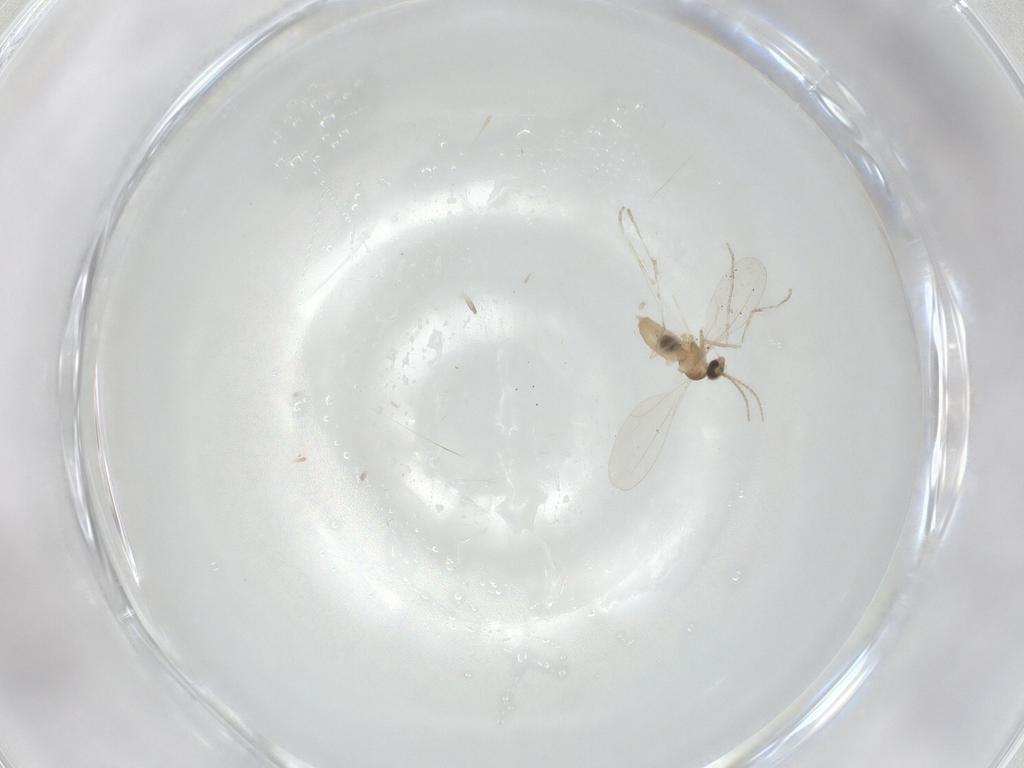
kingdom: Animalia
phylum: Arthropoda
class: Insecta
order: Diptera
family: Cecidomyiidae
